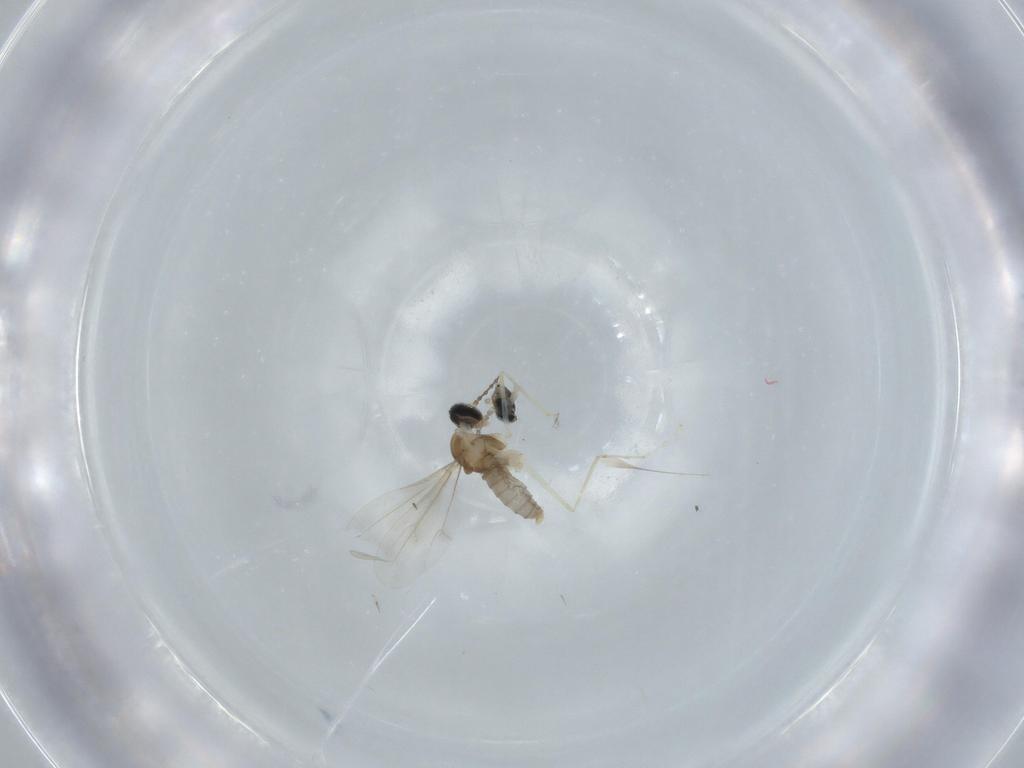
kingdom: Animalia
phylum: Arthropoda
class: Insecta
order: Diptera
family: Cecidomyiidae
